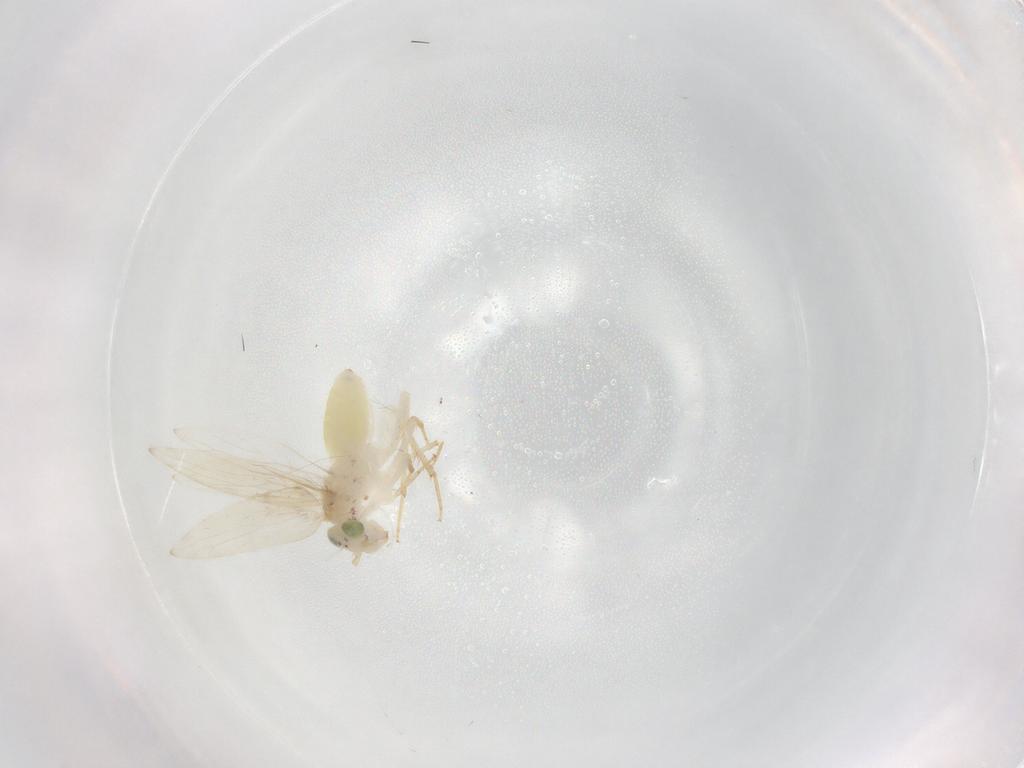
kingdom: Animalia
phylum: Arthropoda
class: Insecta
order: Psocodea
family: Lepidopsocidae
